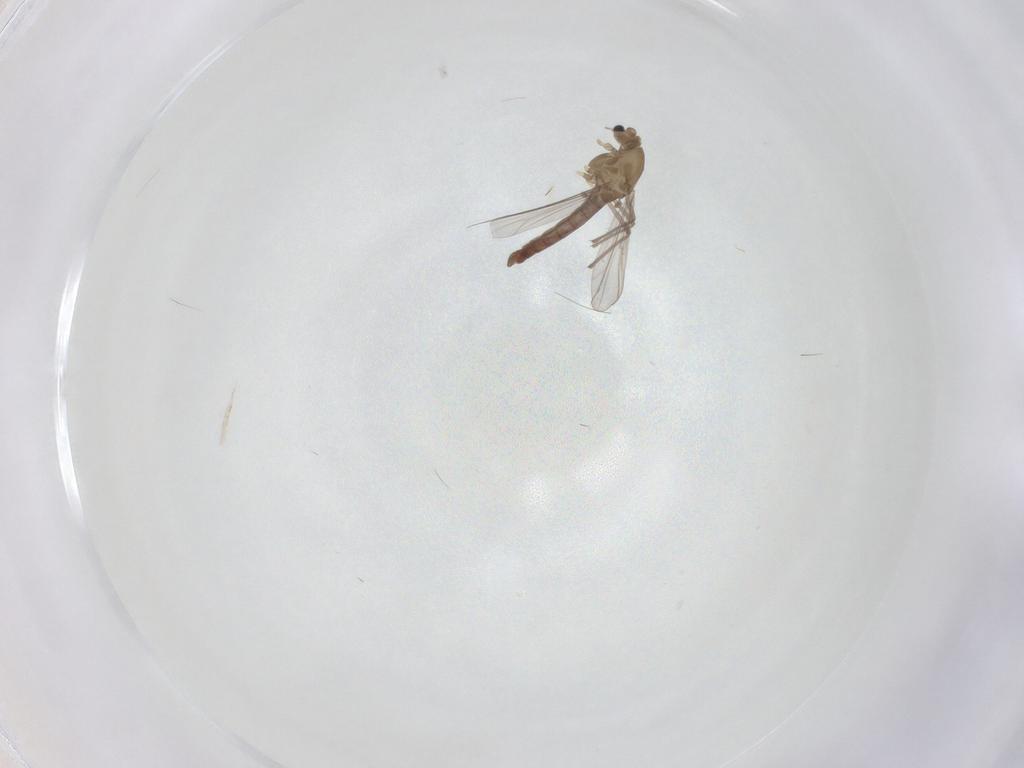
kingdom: Animalia
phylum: Arthropoda
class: Insecta
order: Diptera
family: Chironomidae
